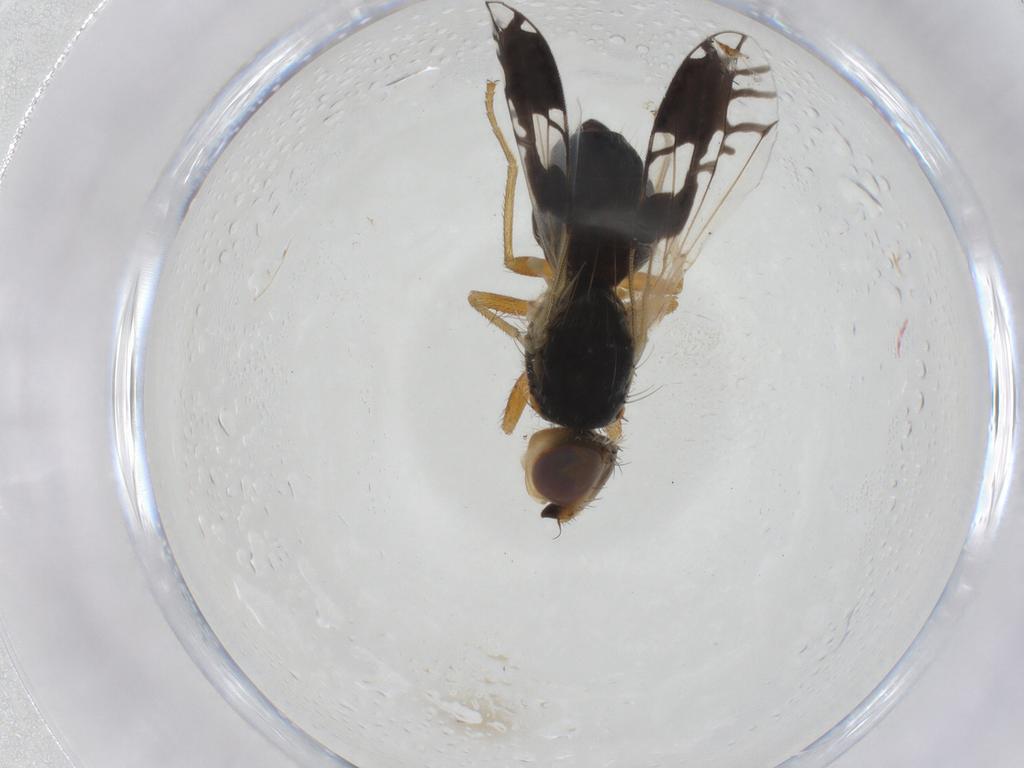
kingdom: Animalia
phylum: Arthropoda
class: Insecta
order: Diptera
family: Tephritidae
